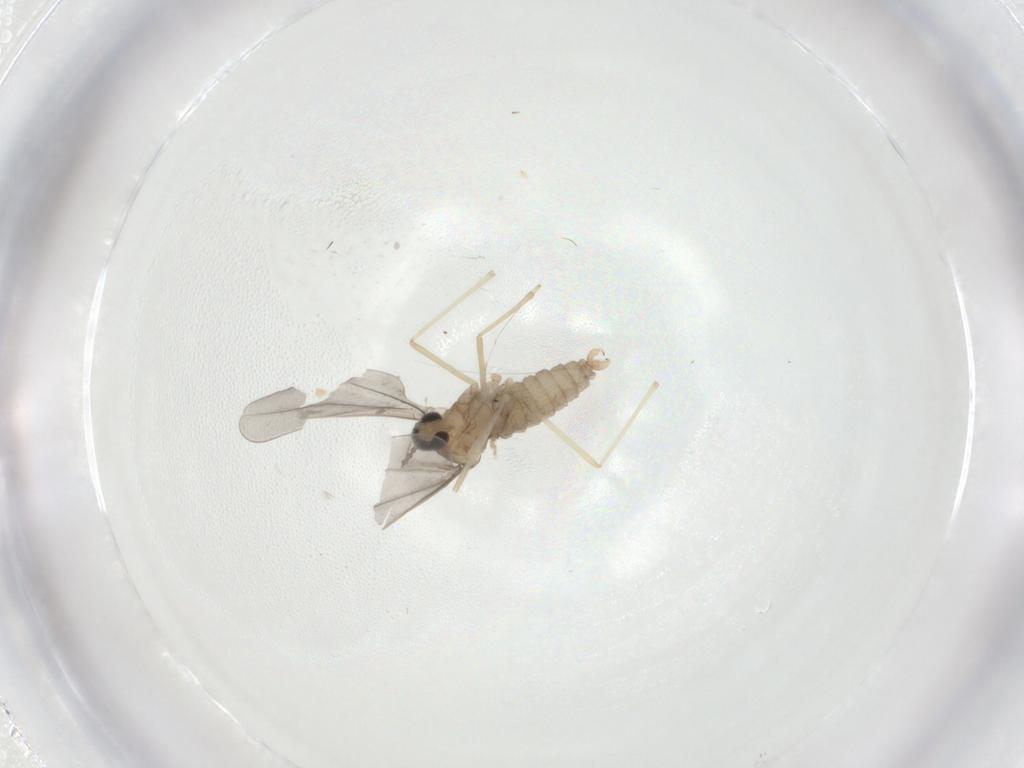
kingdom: Animalia
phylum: Arthropoda
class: Insecta
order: Diptera
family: Cecidomyiidae
